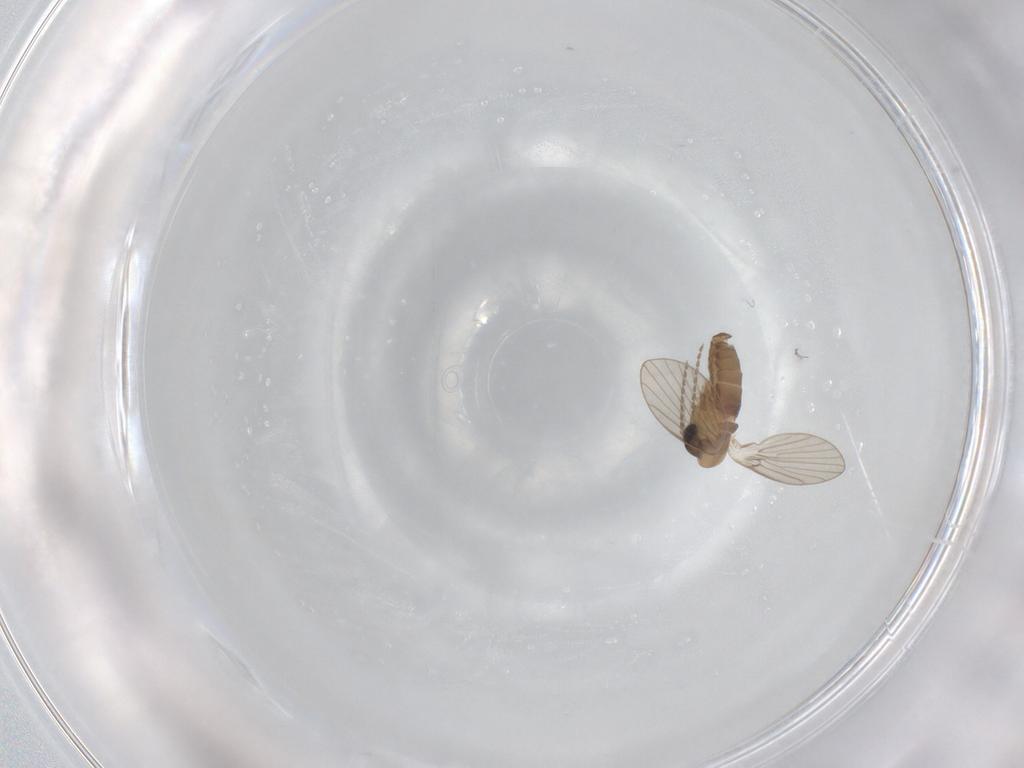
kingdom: Animalia
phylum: Arthropoda
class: Insecta
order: Diptera
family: Psychodidae
